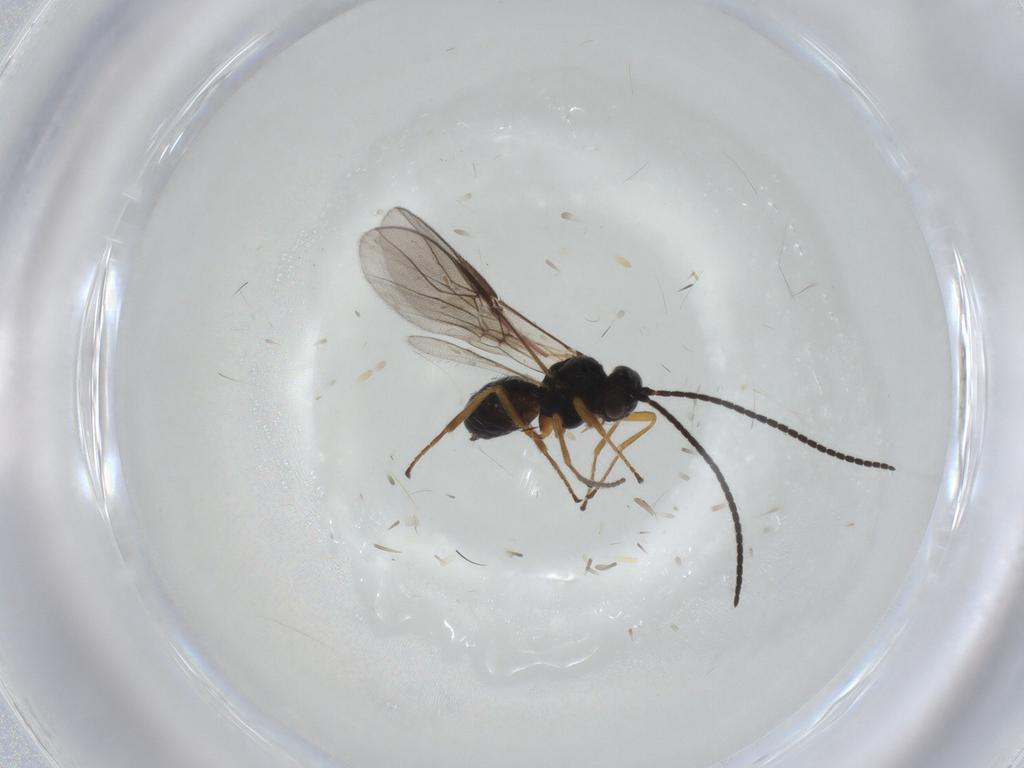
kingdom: Animalia
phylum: Arthropoda
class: Insecta
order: Hymenoptera
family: Braconidae
